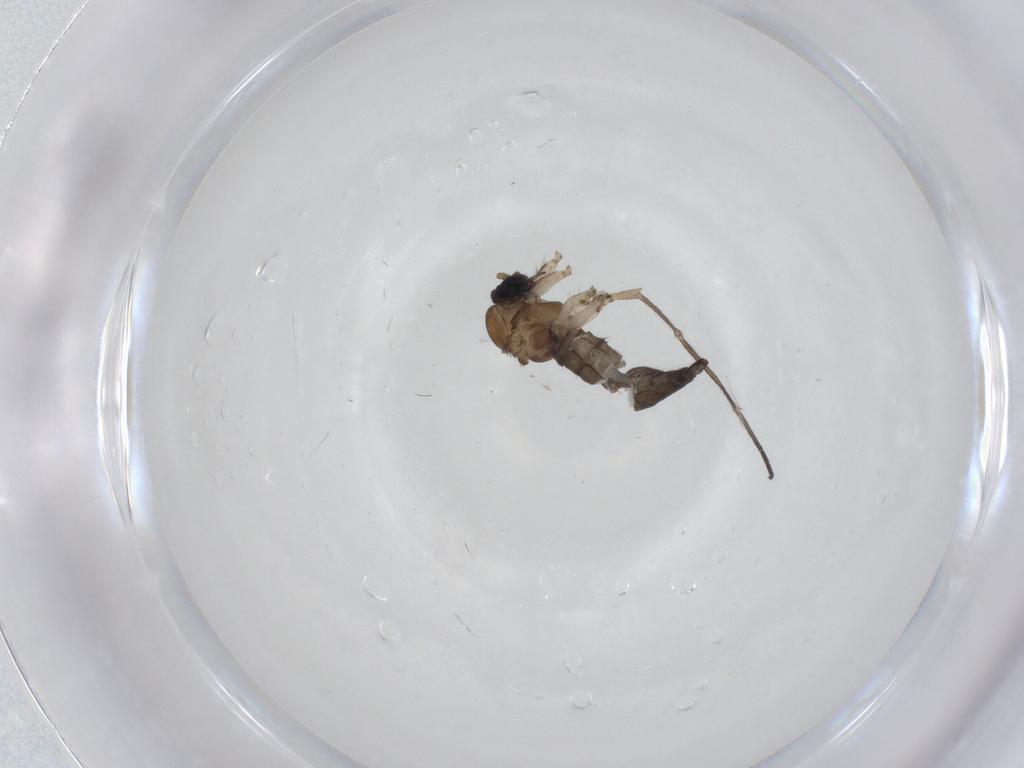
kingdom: Animalia
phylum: Arthropoda
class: Insecta
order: Diptera
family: Sciaridae
